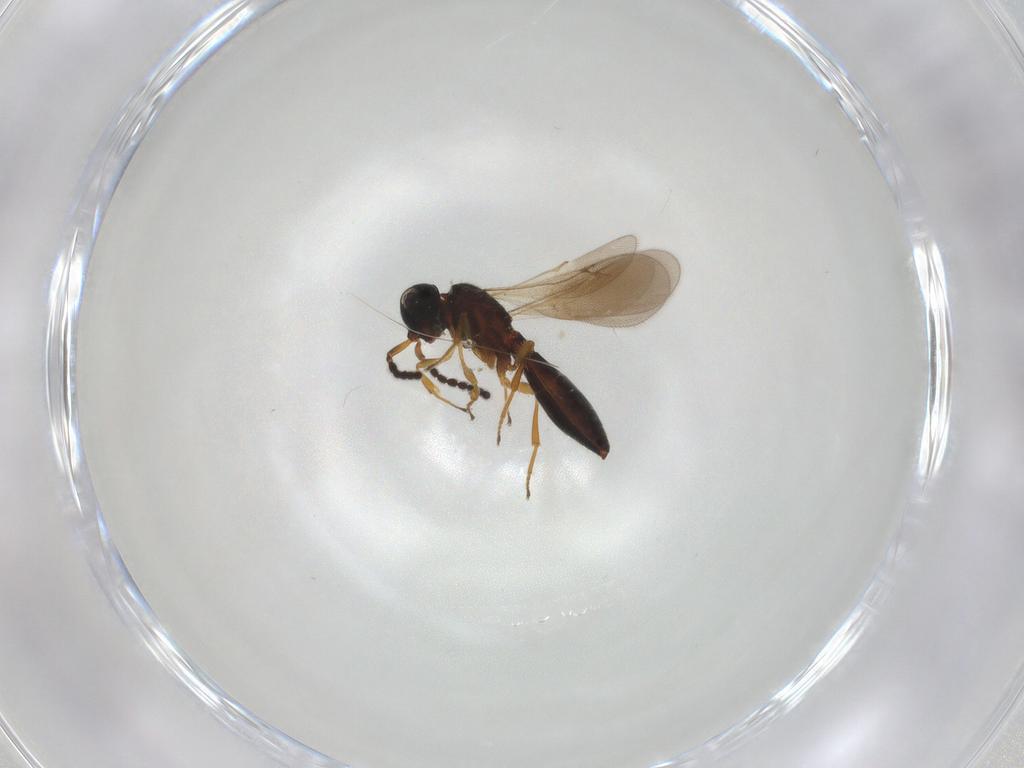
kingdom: Animalia
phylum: Arthropoda
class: Insecta
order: Hymenoptera
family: Scelionidae
